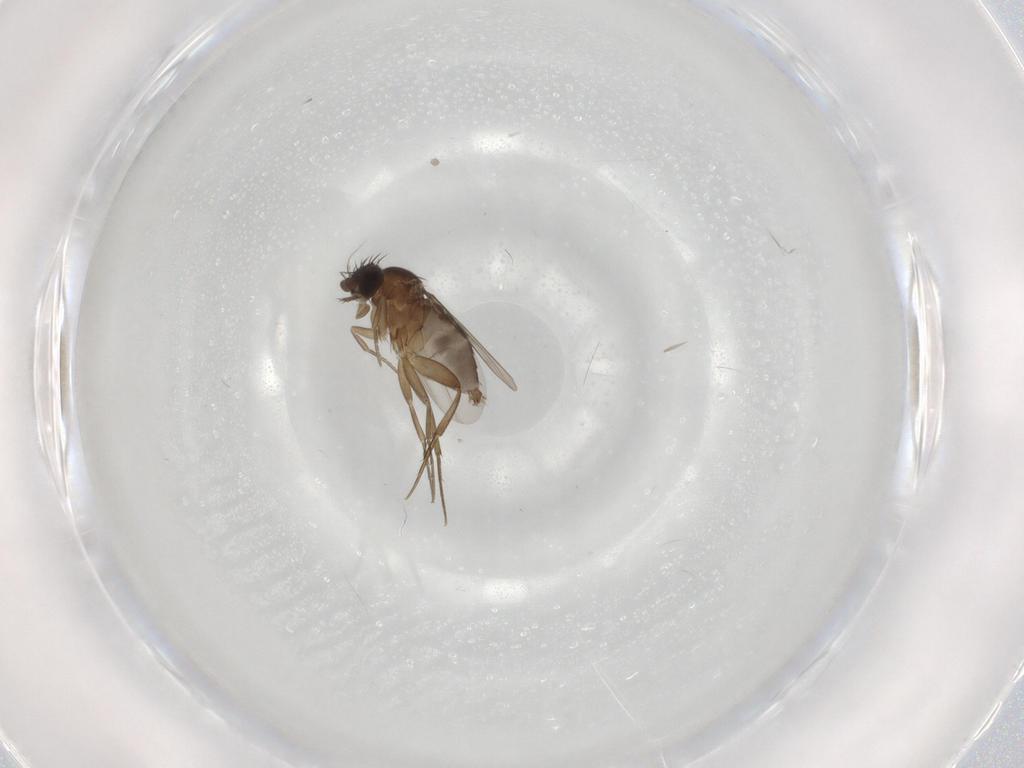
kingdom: Animalia
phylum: Arthropoda
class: Insecta
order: Diptera
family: Phoridae
